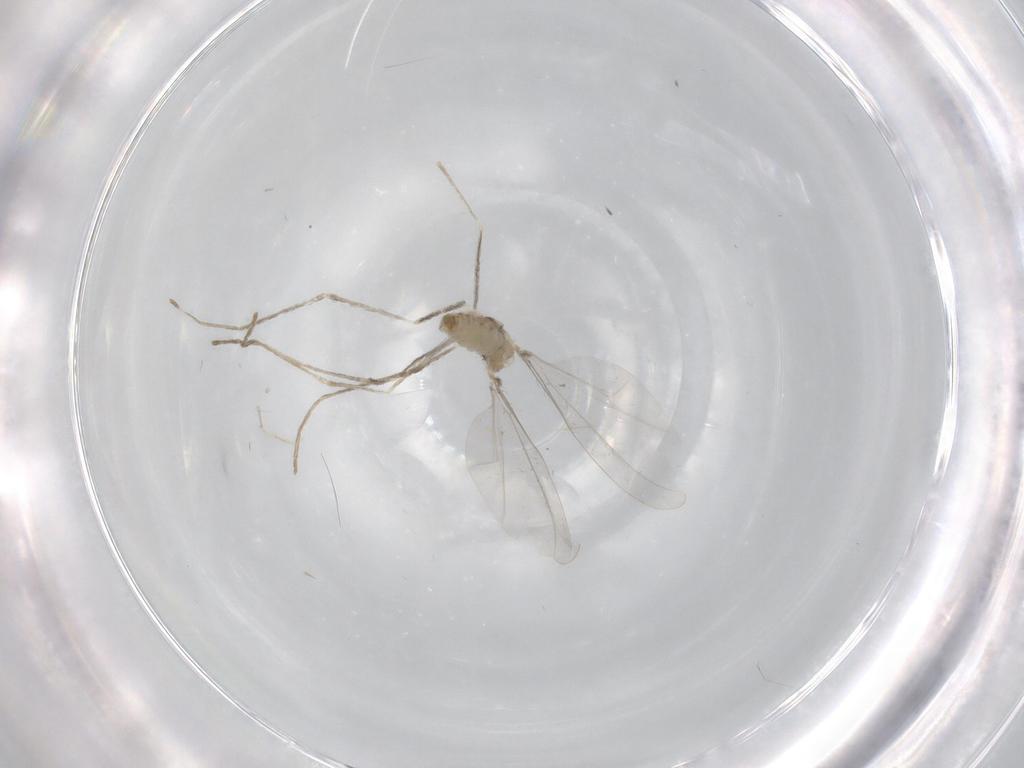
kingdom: Animalia
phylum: Arthropoda
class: Insecta
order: Diptera
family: Cecidomyiidae
